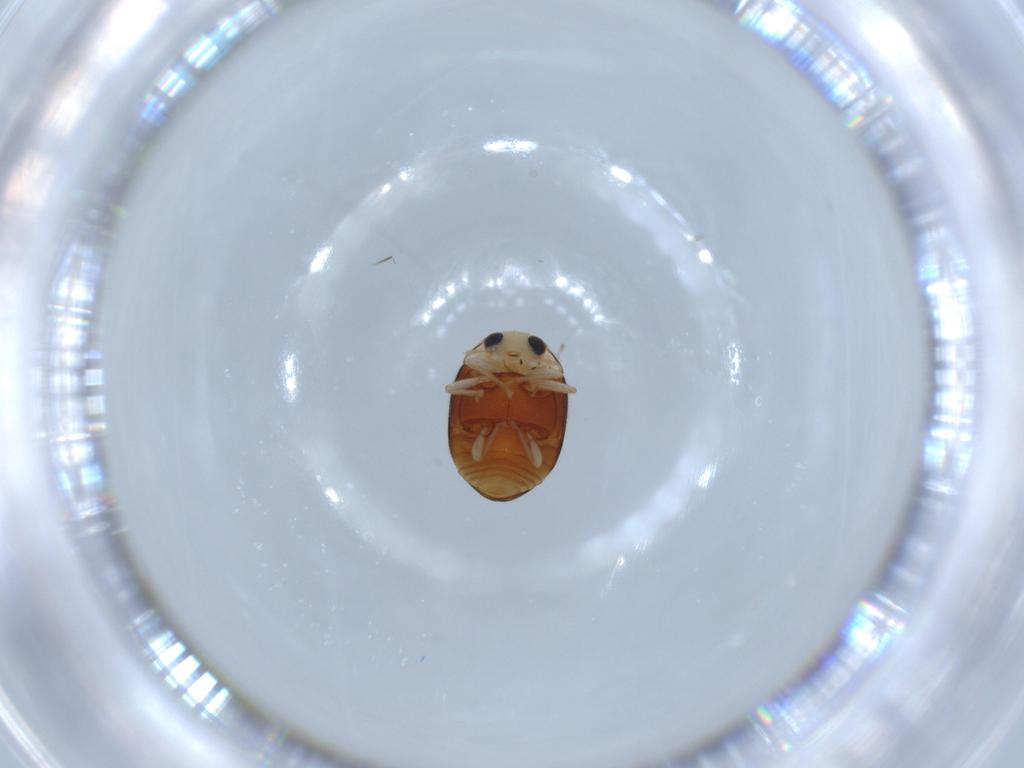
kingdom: Animalia
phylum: Arthropoda
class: Insecta
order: Coleoptera
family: Coccinellidae
